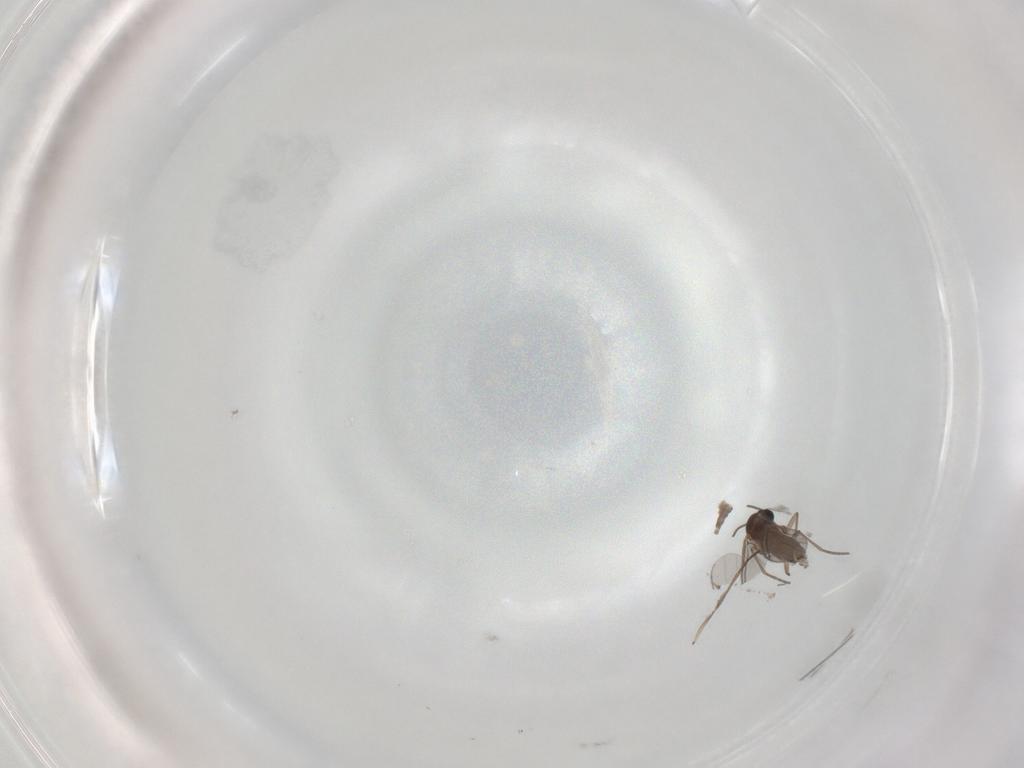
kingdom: Animalia
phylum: Arthropoda
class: Insecta
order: Diptera
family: Sciaridae
